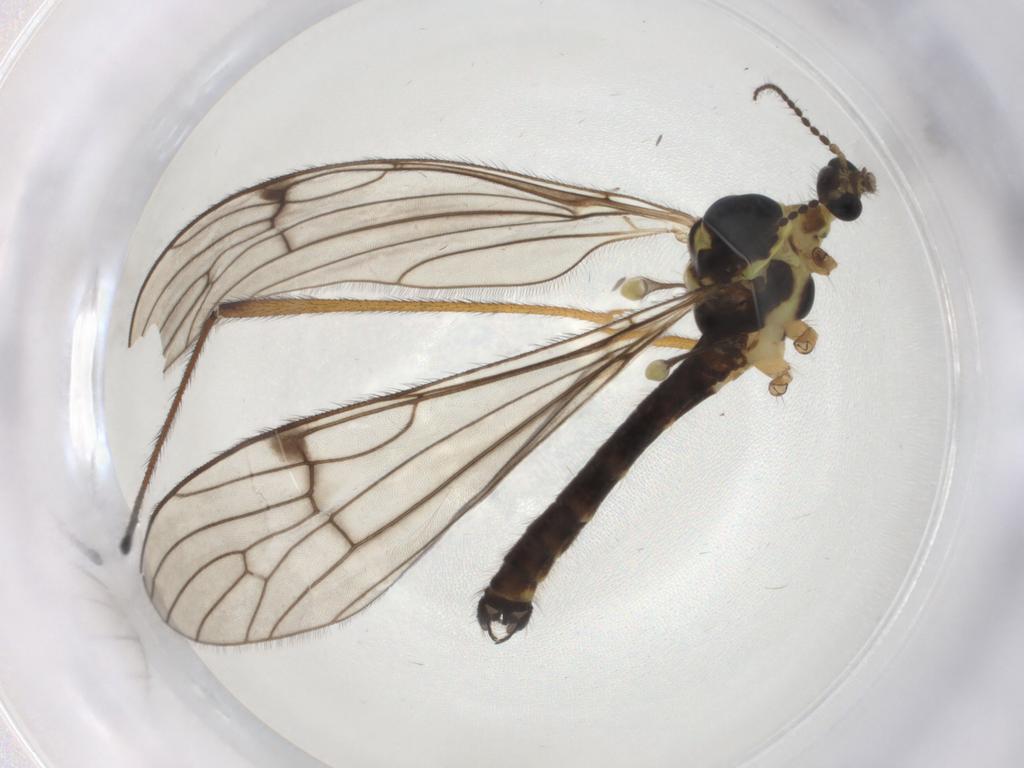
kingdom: Animalia
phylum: Arthropoda
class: Insecta
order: Diptera
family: Limoniidae
